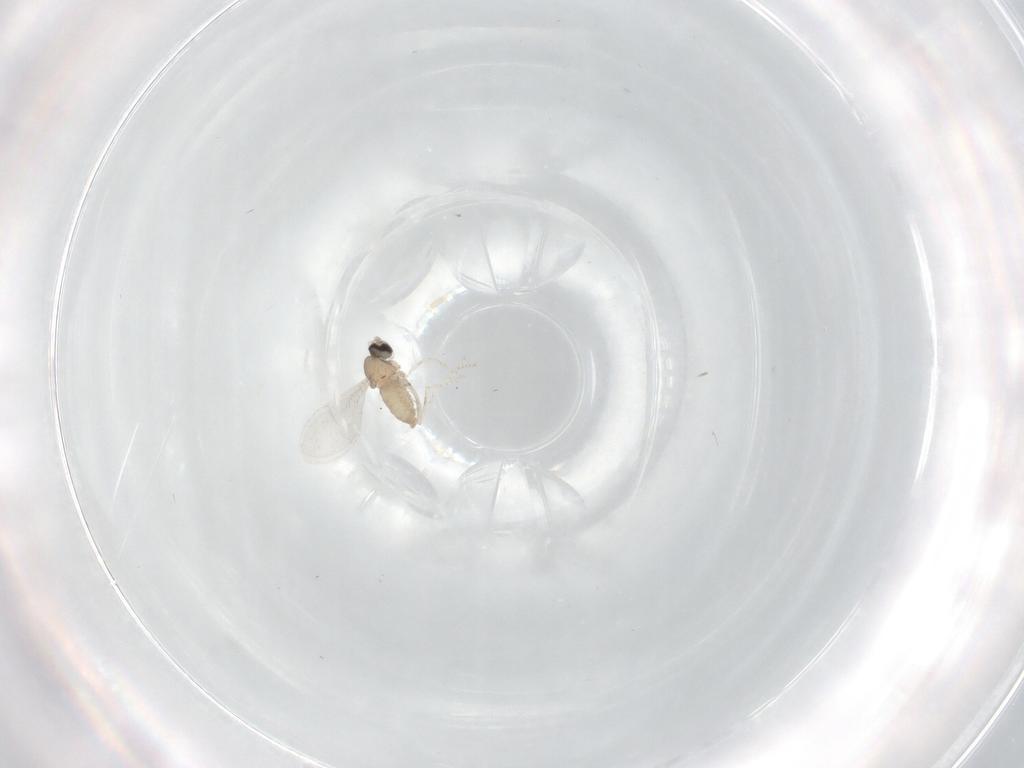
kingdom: Animalia
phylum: Arthropoda
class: Insecta
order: Diptera
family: Cecidomyiidae
